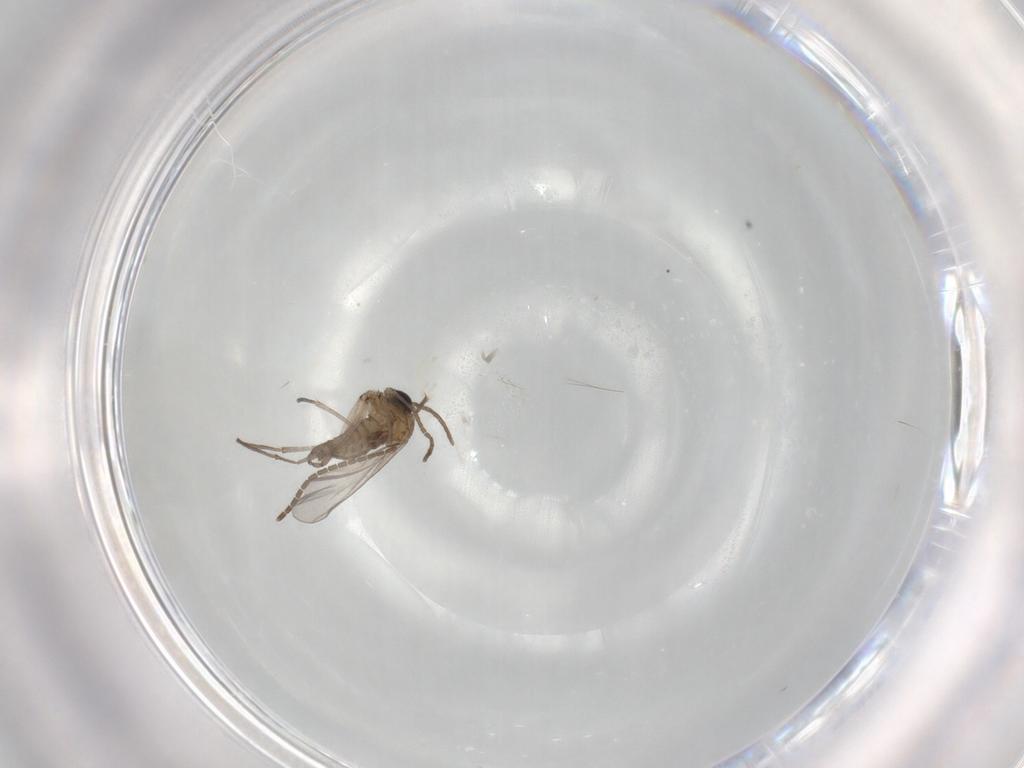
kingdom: Animalia
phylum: Arthropoda
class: Insecta
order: Diptera
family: Sciaridae
